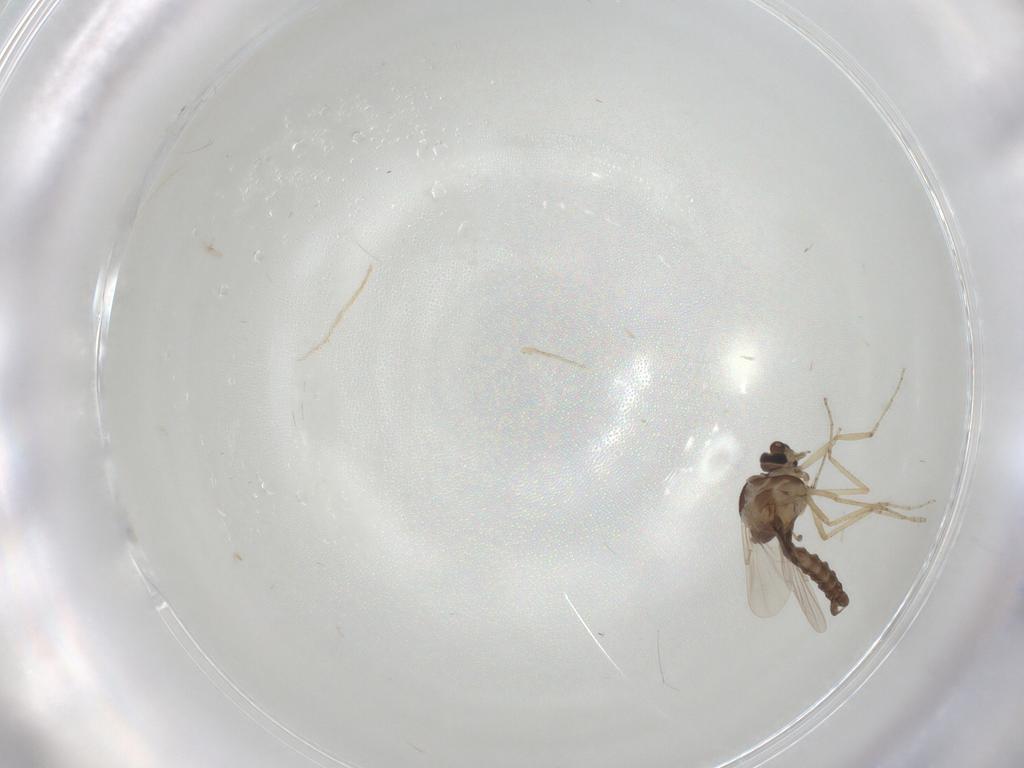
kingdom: Animalia
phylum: Arthropoda
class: Insecta
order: Diptera
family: Ceratopogonidae
